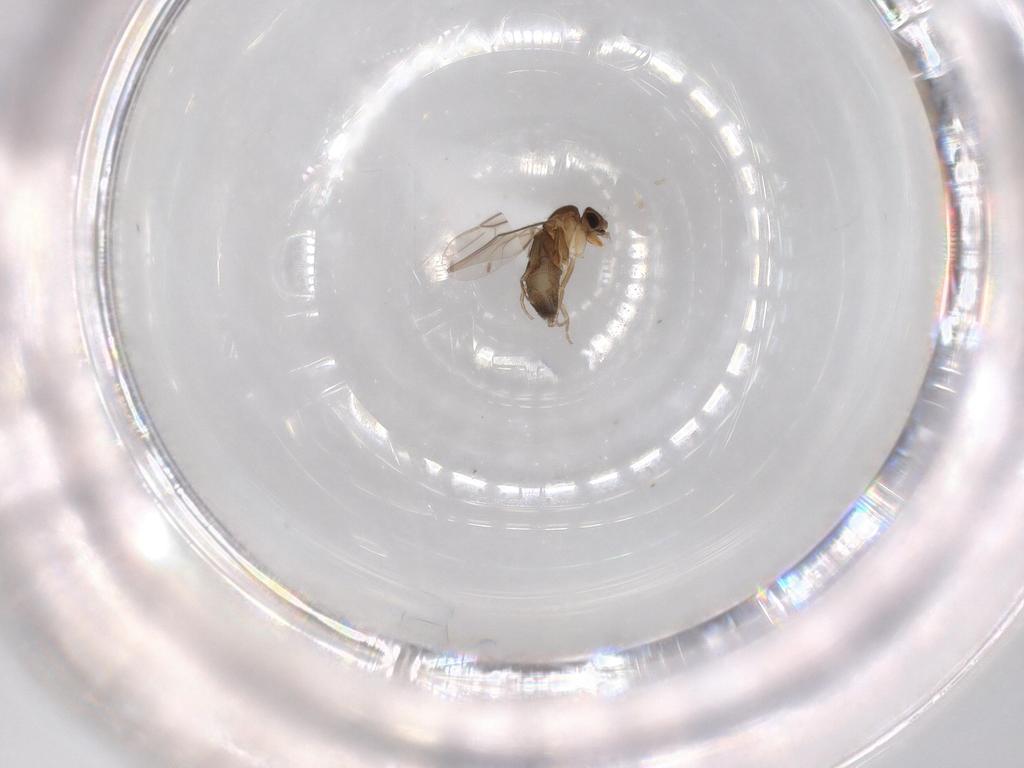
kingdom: Animalia
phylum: Arthropoda
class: Insecta
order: Diptera
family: Phoridae
